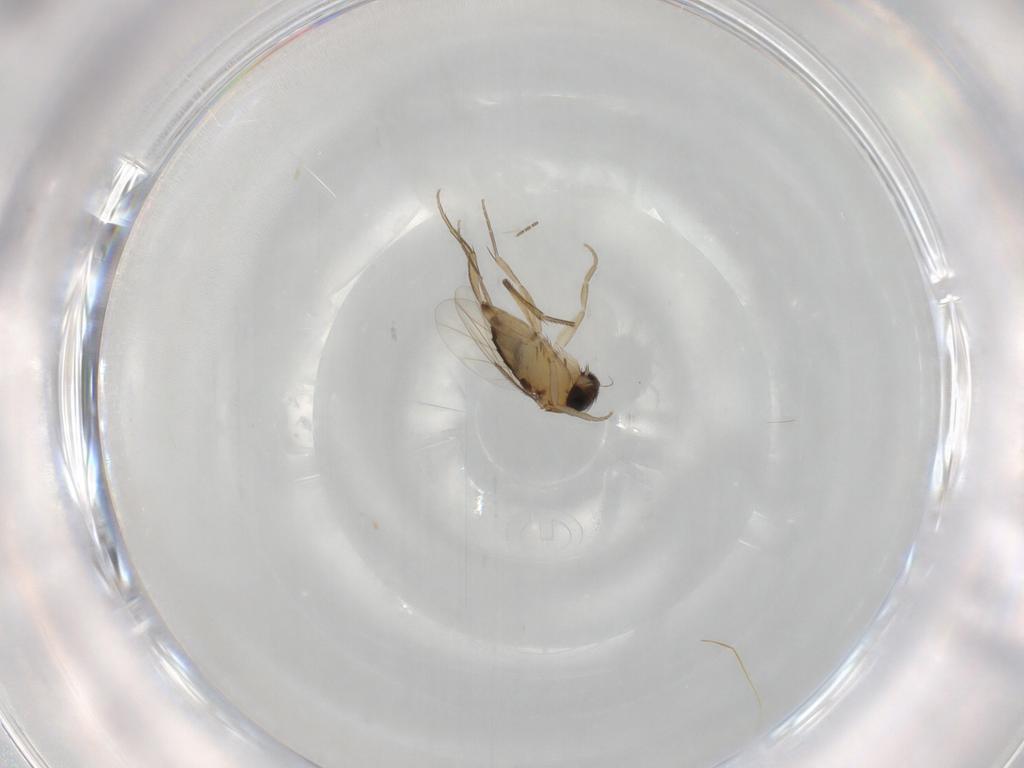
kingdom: Animalia
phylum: Arthropoda
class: Insecta
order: Diptera
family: Phoridae
